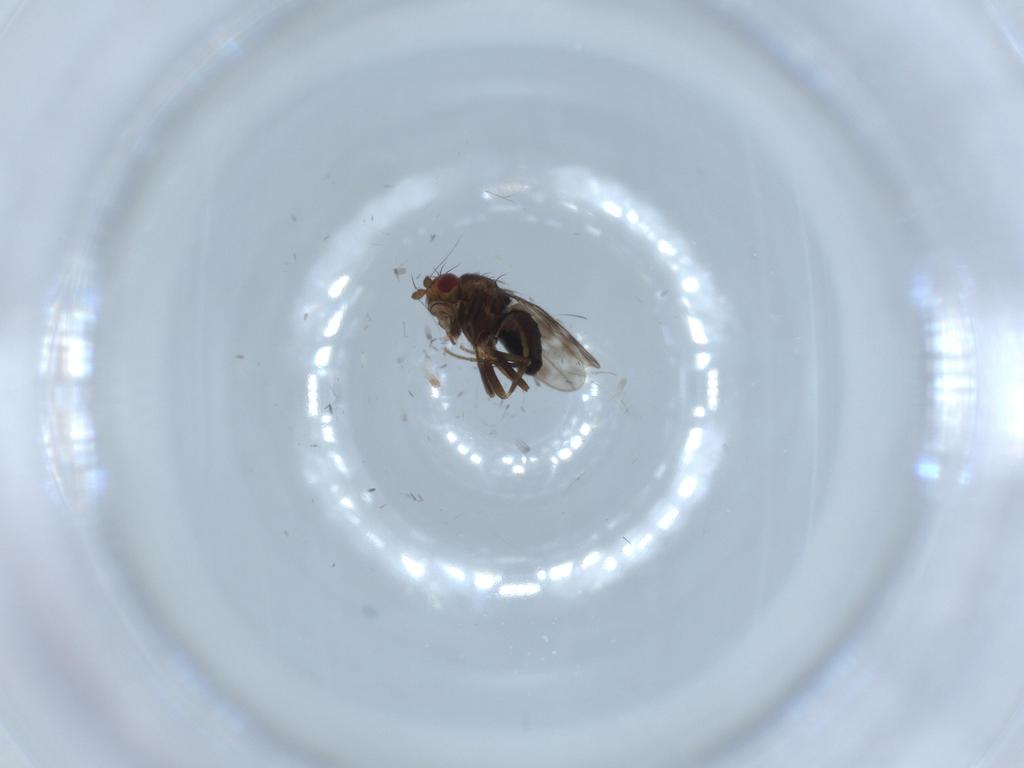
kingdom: Animalia
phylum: Arthropoda
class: Insecta
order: Diptera
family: Sphaeroceridae
